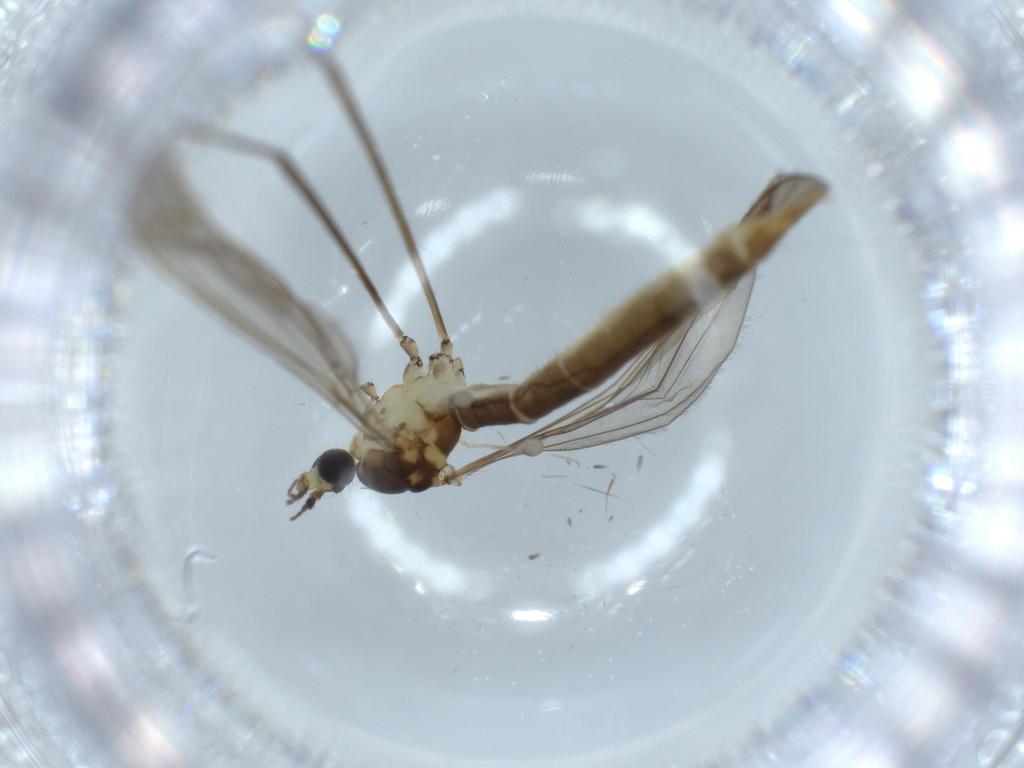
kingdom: Animalia
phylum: Arthropoda
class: Insecta
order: Diptera
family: Limoniidae
